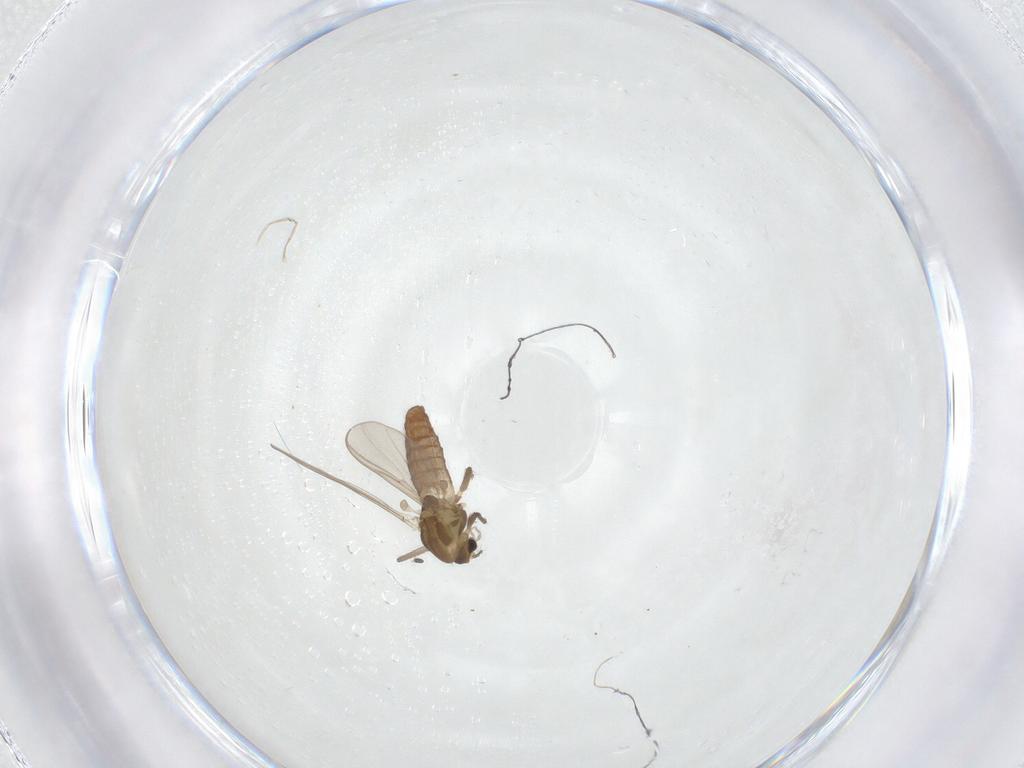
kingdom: Animalia
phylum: Arthropoda
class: Insecta
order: Diptera
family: Chironomidae
